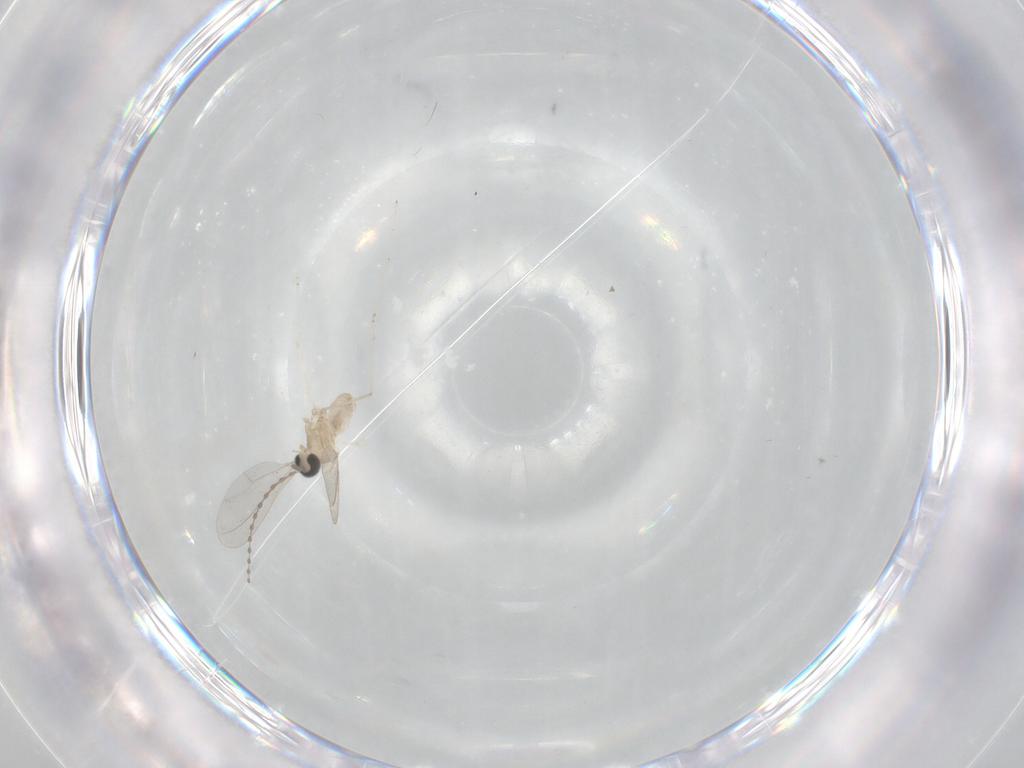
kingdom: Animalia
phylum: Arthropoda
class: Insecta
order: Diptera
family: Cecidomyiidae
